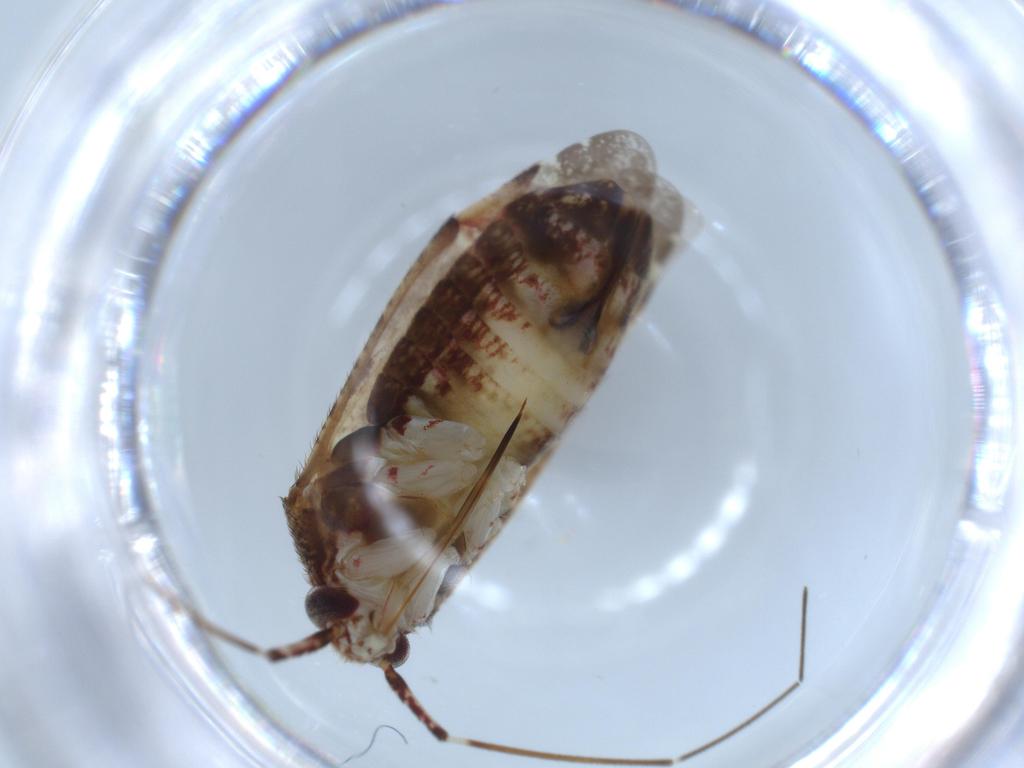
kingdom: Animalia
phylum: Arthropoda
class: Insecta
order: Hemiptera
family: Miridae
